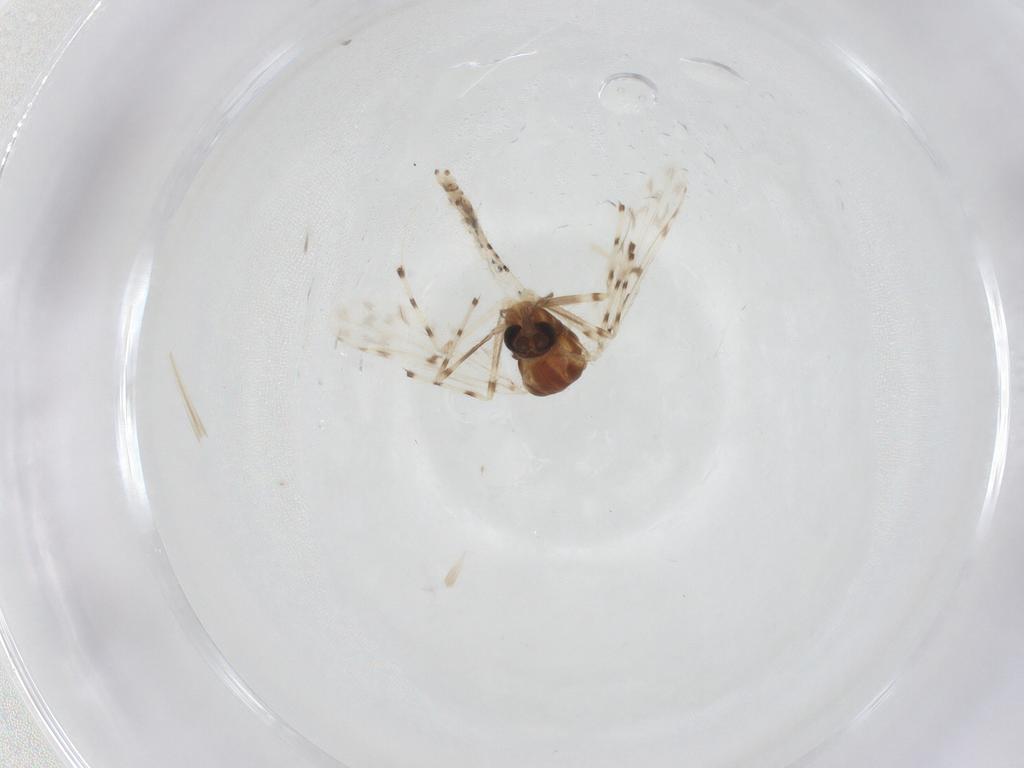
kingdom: Animalia
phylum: Arthropoda
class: Insecta
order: Diptera
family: Chironomidae
